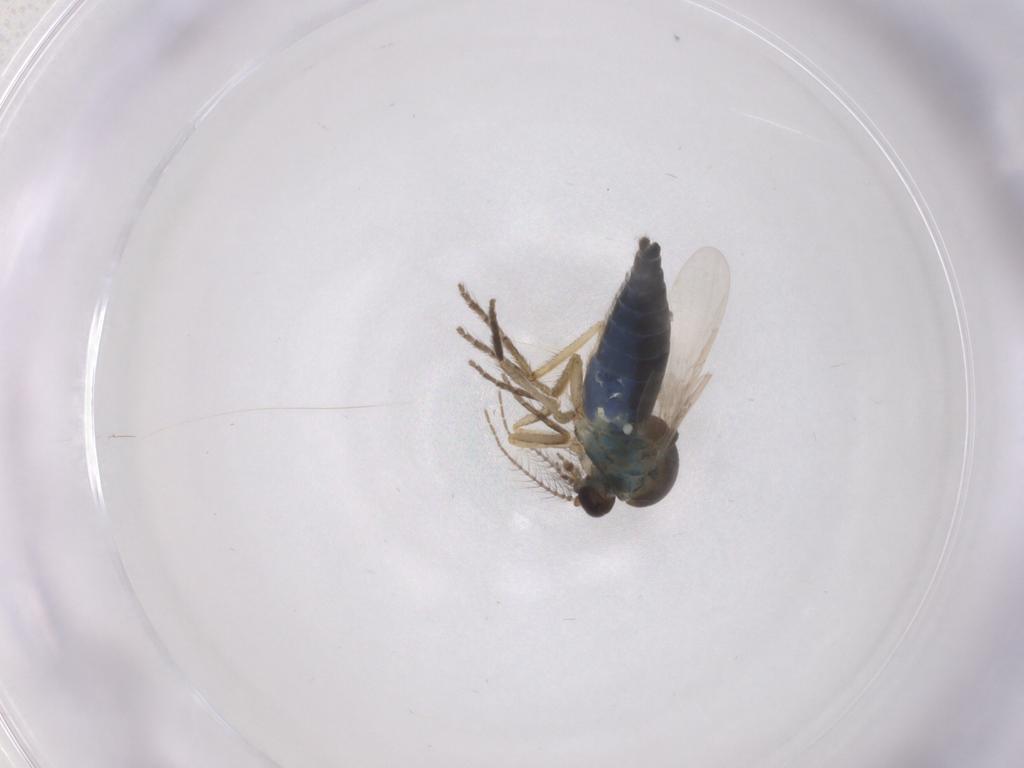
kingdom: Animalia
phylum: Arthropoda
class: Insecta
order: Diptera
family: Ceratopogonidae
